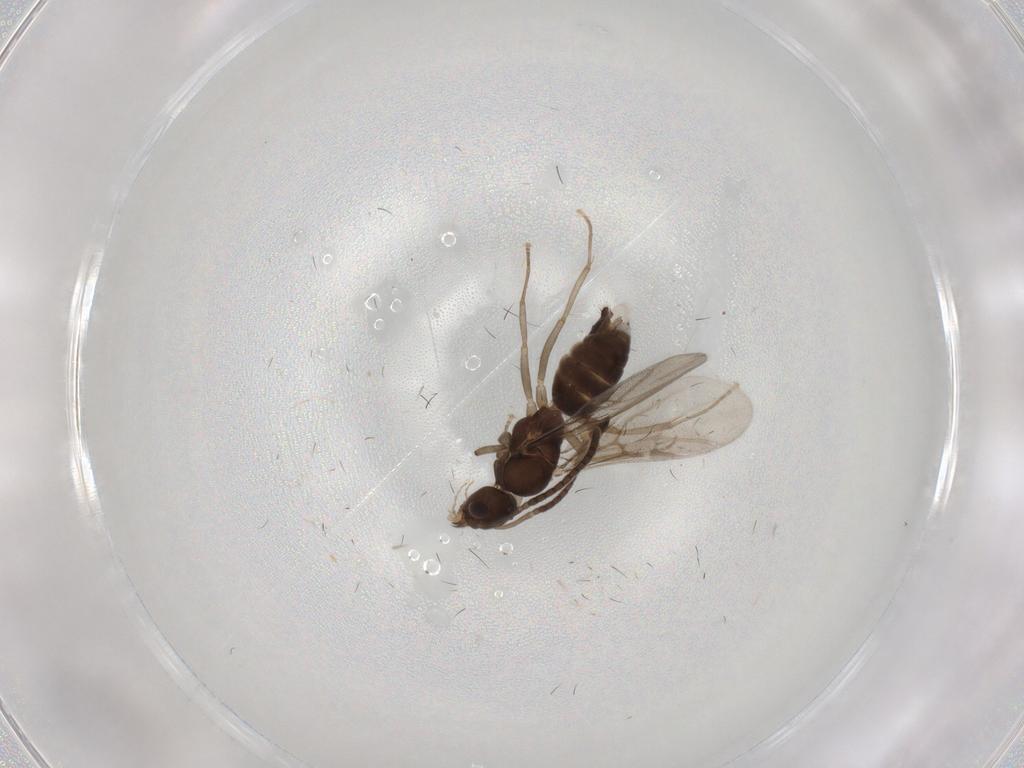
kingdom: Animalia
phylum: Arthropoda
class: Insecta
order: Hymenoptera
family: Formicidae
